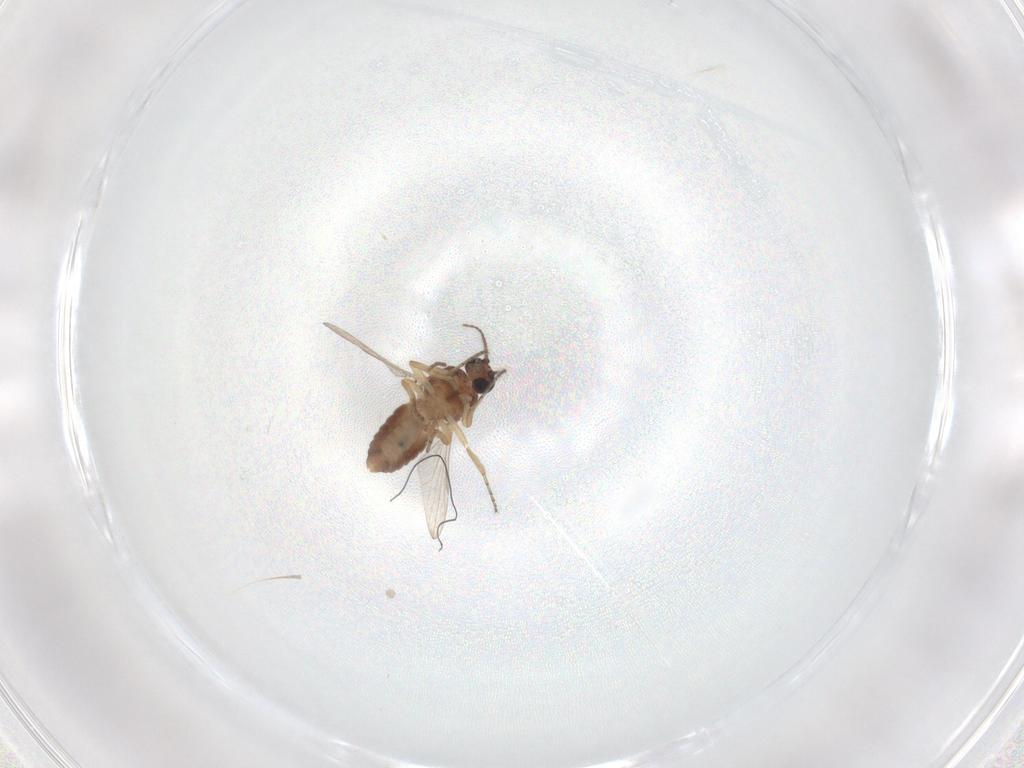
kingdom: Animalia
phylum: Arthropoda
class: Insecta
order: Diptera
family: Ceratopogonidae
